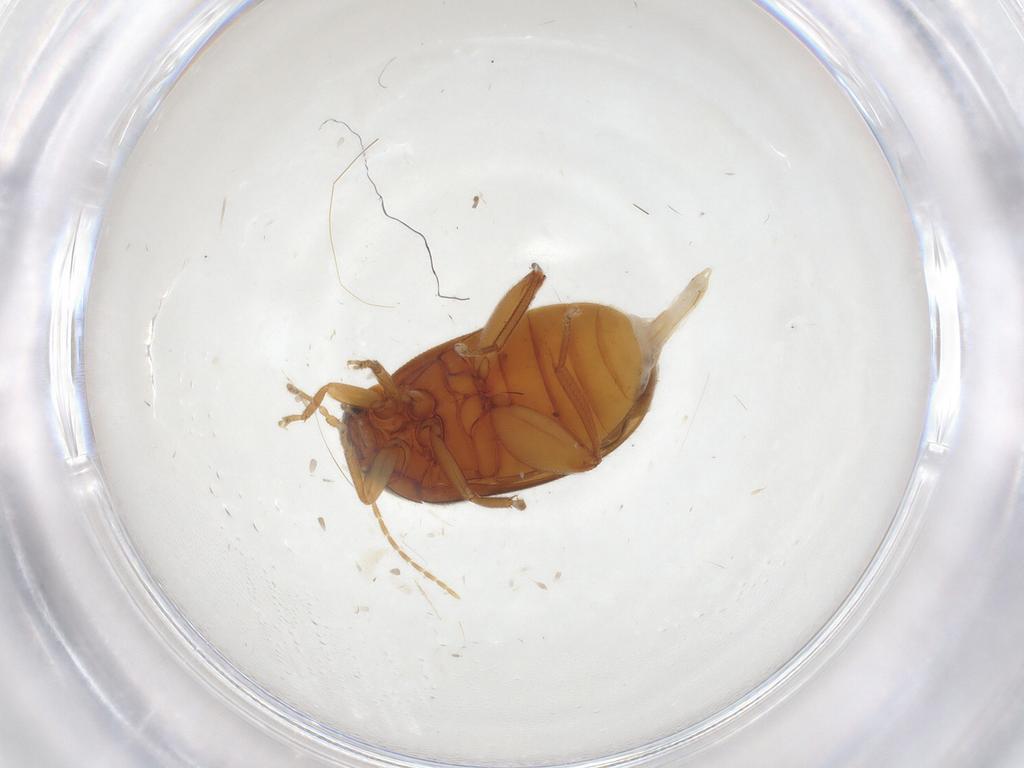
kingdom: Animalia
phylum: Arthropoda
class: Insecta
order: Coleoptera
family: Scirtidae
